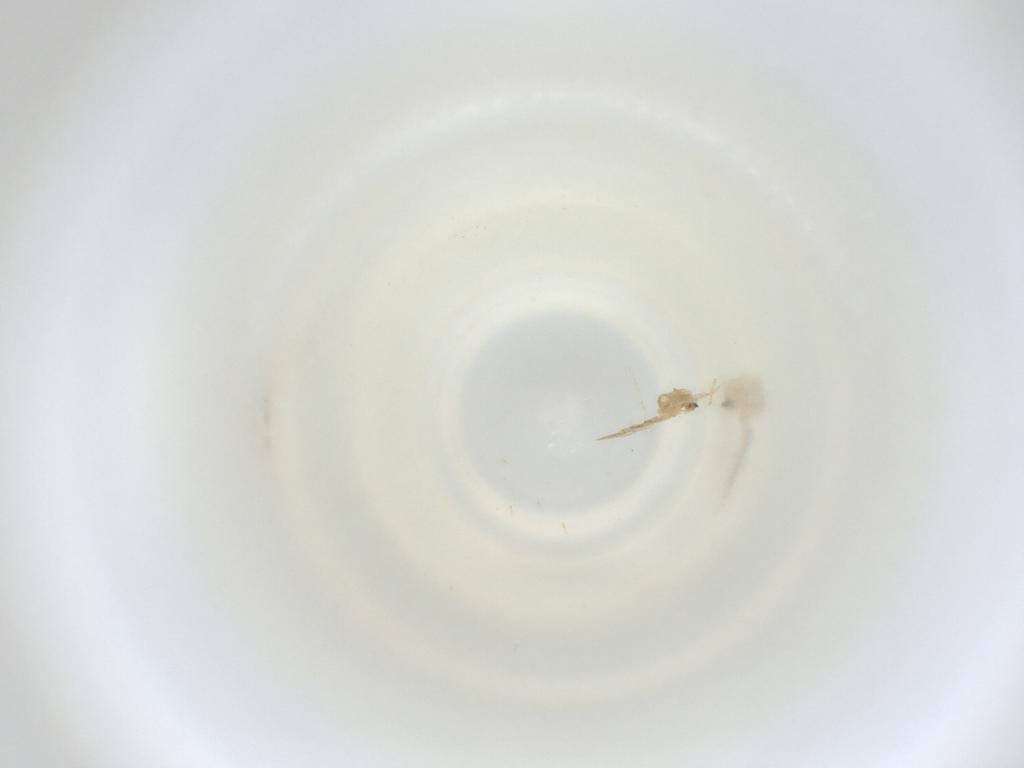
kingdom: Animalia
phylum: Arthropoda
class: Insecta
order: Diptera
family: Cecidomyiidae
